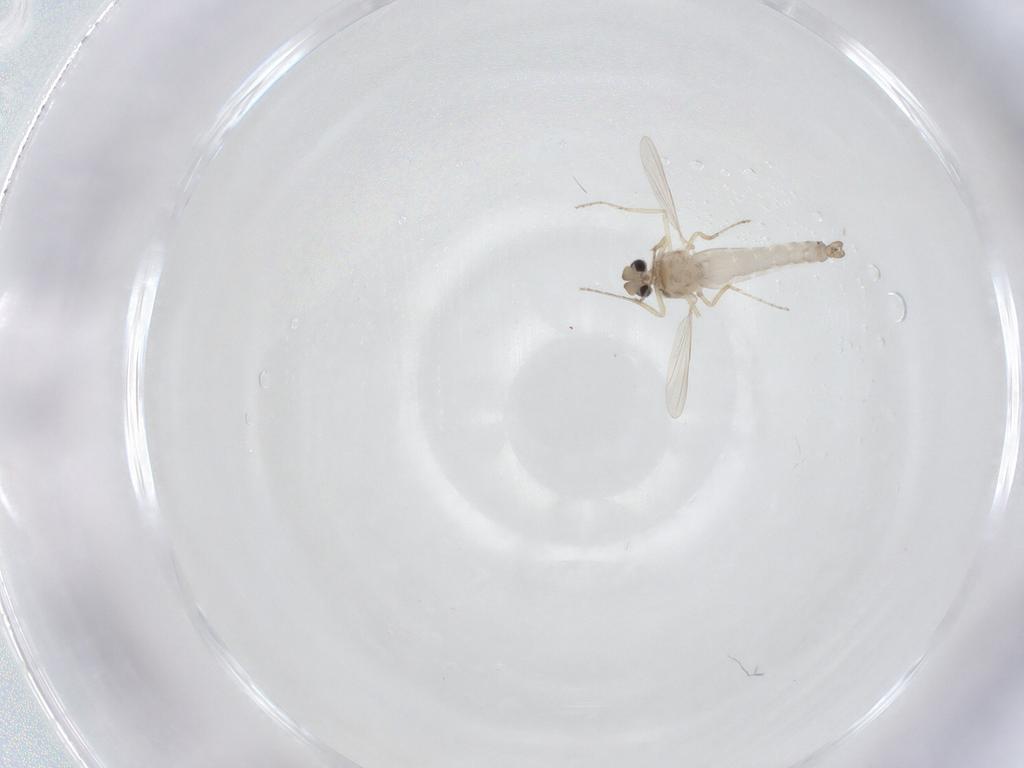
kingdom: Animalia
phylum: Arthropoda
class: Insecta
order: Diptera
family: Ceratopogonidae
